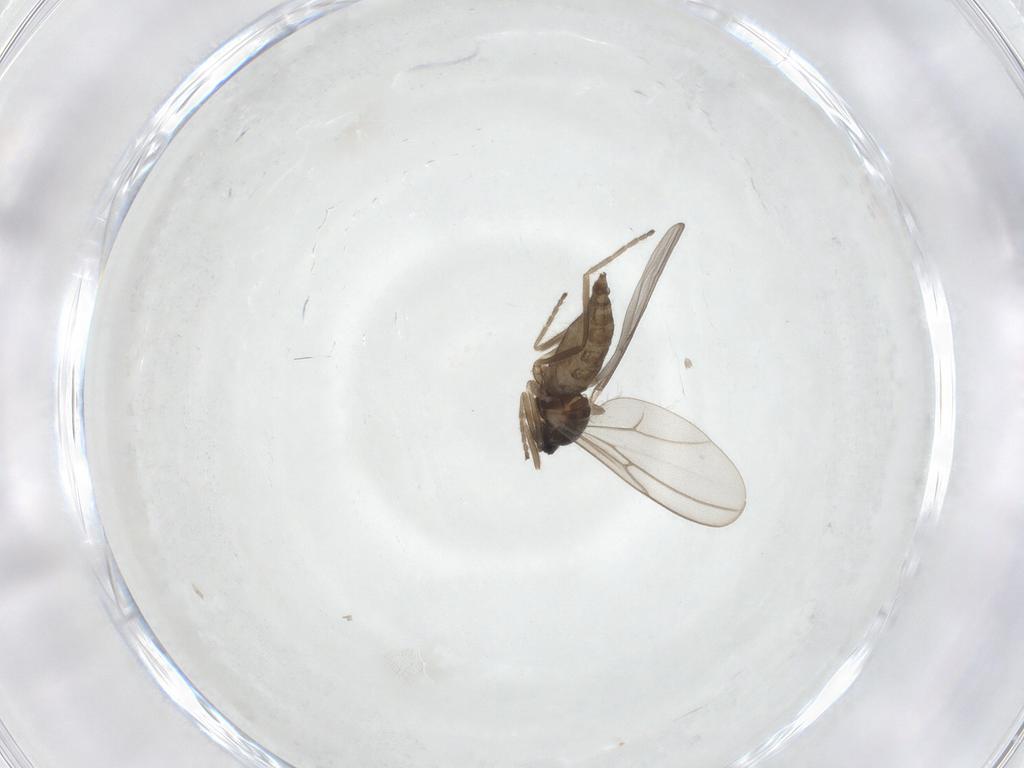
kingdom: Animalia
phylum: Arthropoda
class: Insecta
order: Diptera
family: Cecidomyiidae
